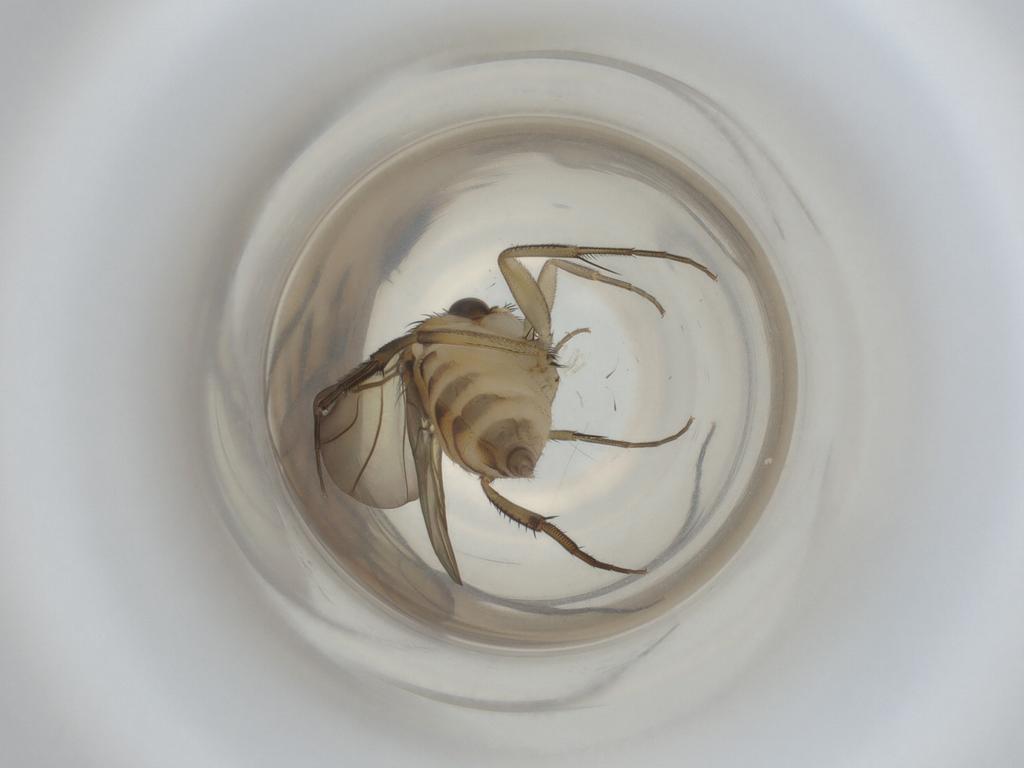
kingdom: Animalia
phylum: Arthropoda
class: Insecta
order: Diptera
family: Phoridae
